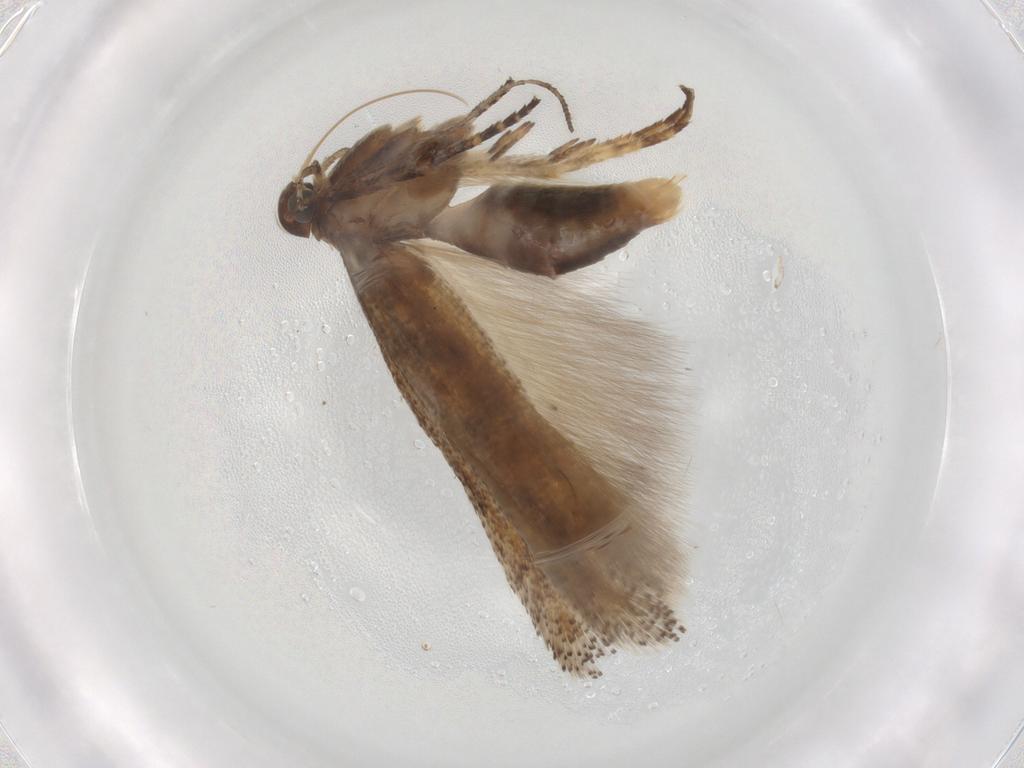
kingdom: Animalia
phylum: Arthropoda
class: Insecta
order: Lepidoptera
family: Gelechiidae
